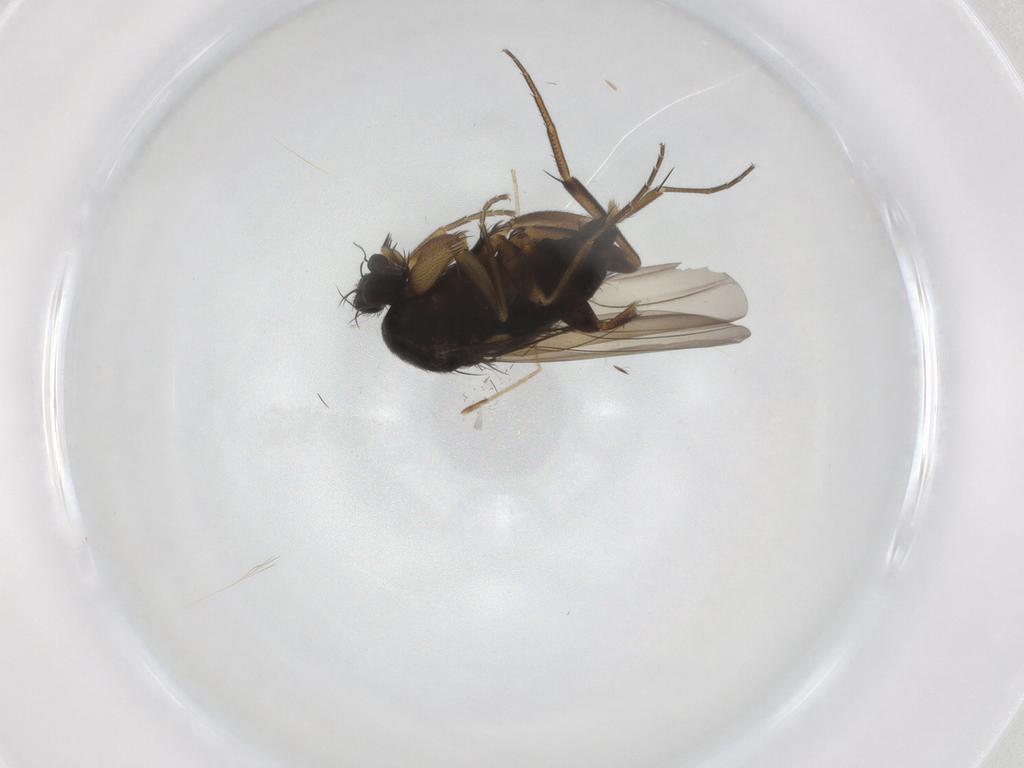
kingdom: Animalia
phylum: Arthropoda
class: Insecta
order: Diptera
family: Phoridae
